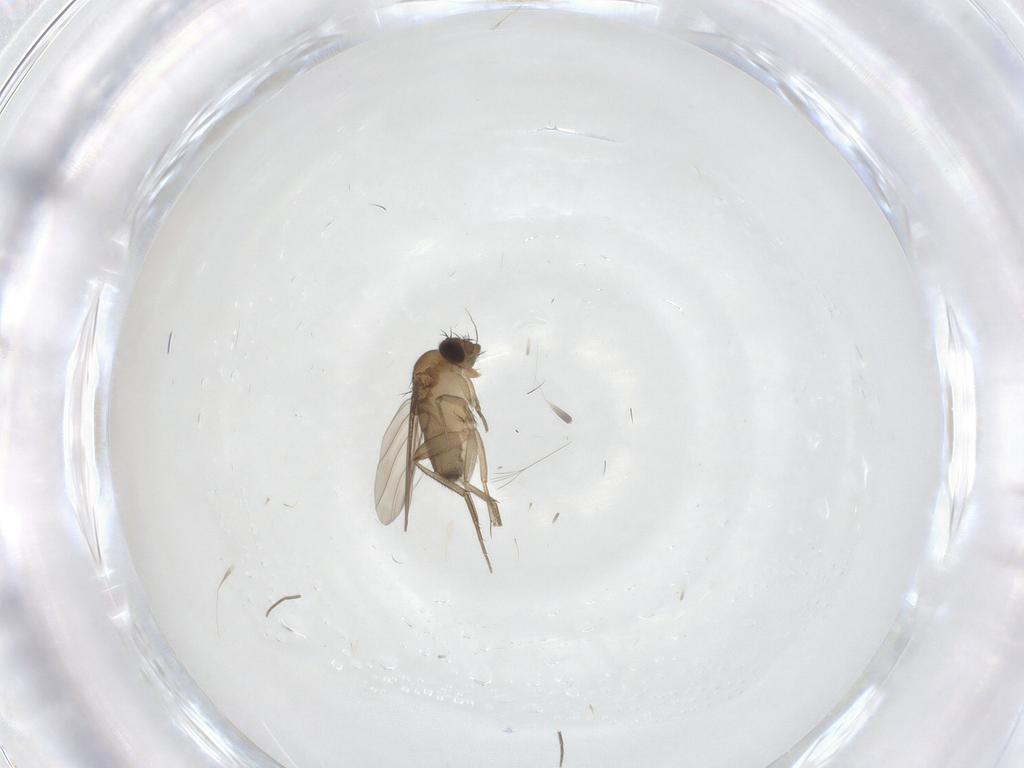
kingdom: Animalia
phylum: Arthropoda
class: Insecta
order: Diptera
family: Phoridae
